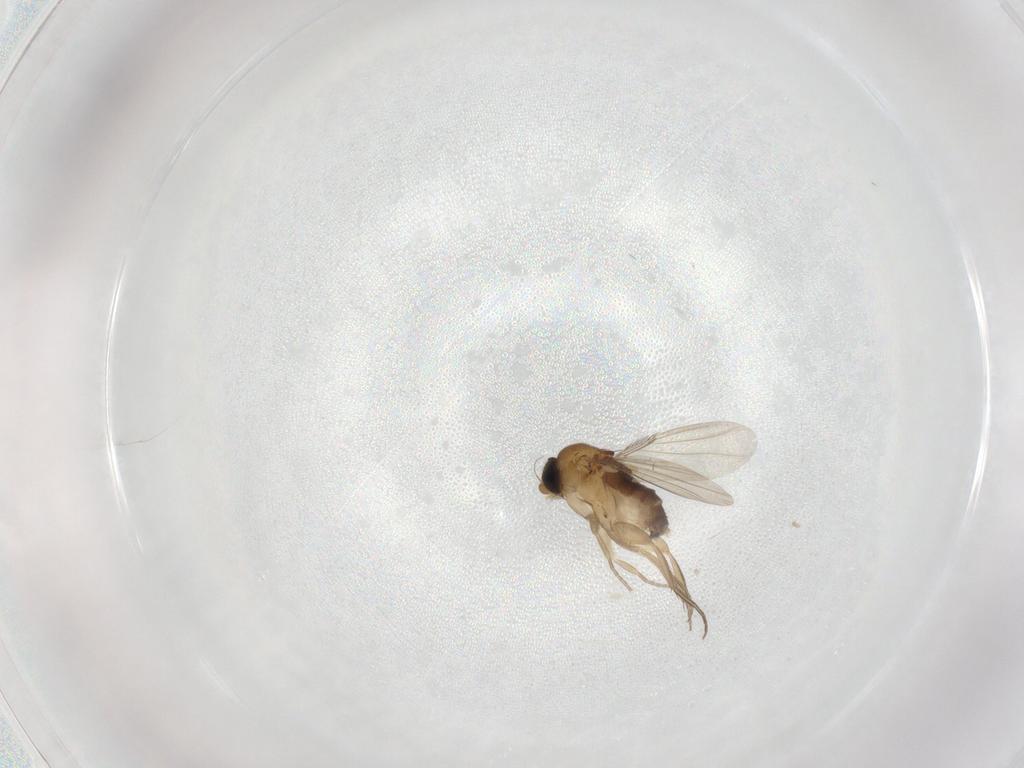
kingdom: Animalia
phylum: Arthropoda
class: Insecta
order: Diptera
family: Phoridae
